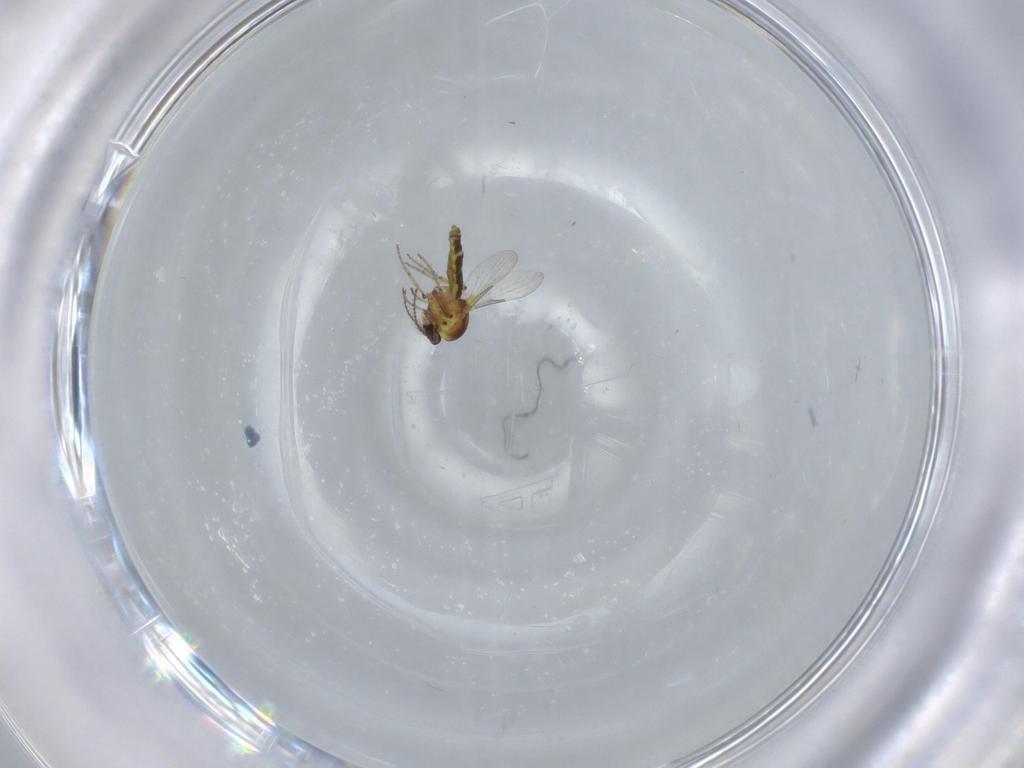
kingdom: Animalia
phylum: Arthropoda
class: Insecta
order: Diptera
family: Ceratopogonidae
